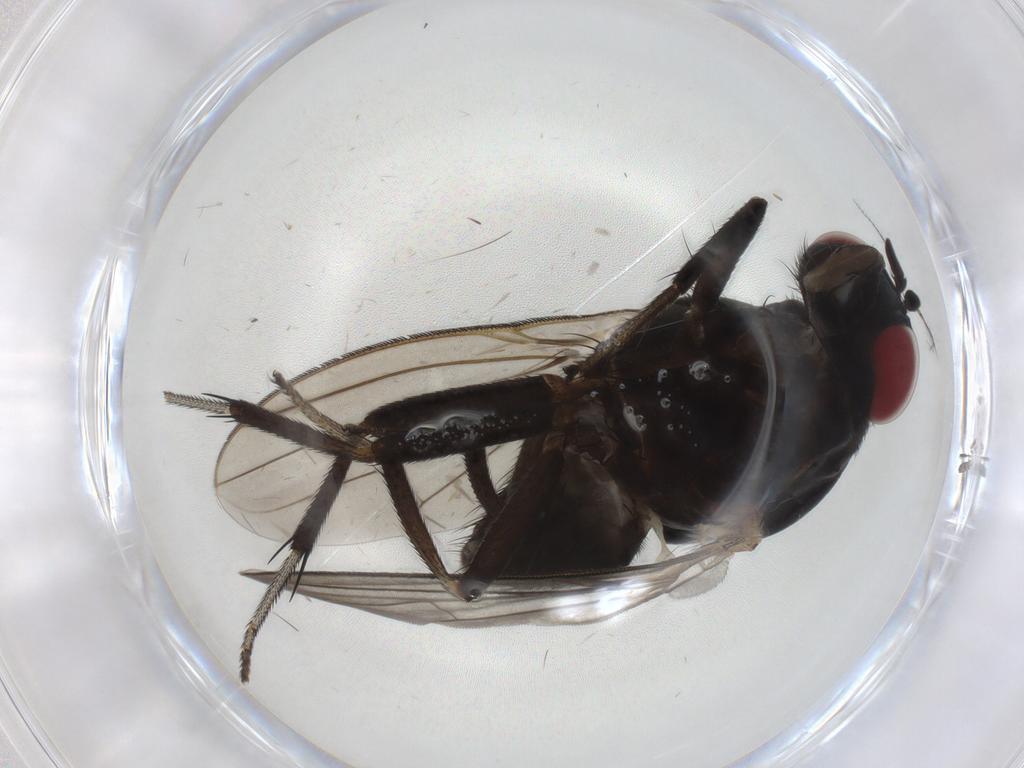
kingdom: Animalia
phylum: Arthropoda
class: Insecta
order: Diptera
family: Lauxaniidae
